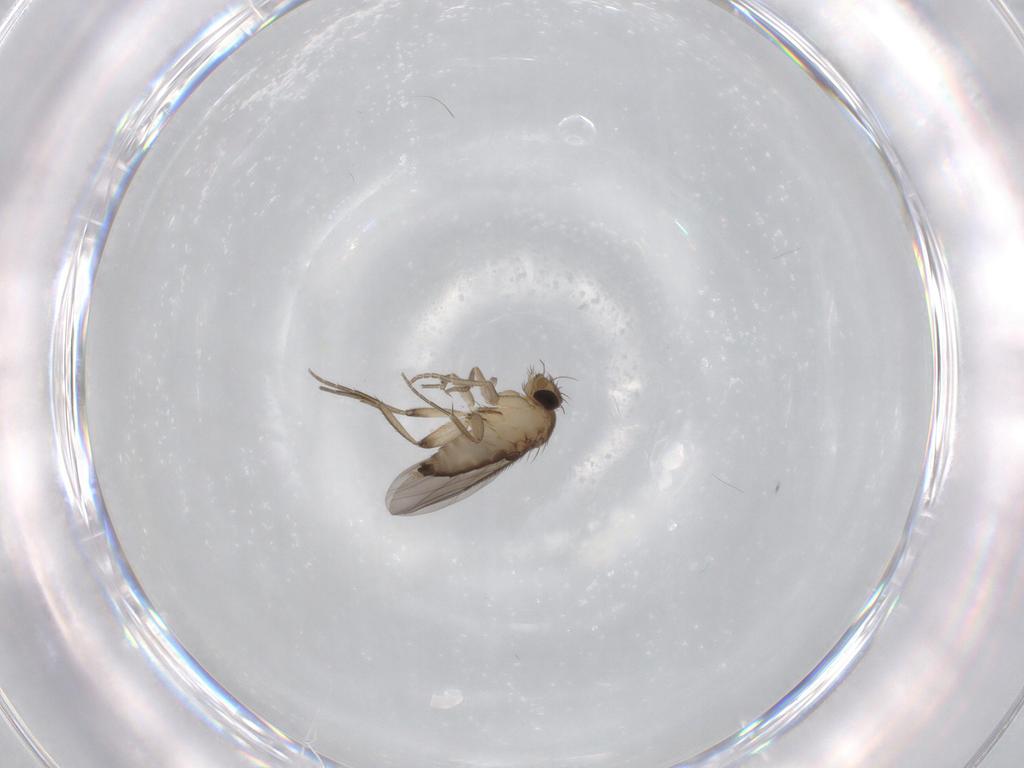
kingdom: Animalia
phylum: Arthropoda
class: Insecta
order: Diptera
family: Phoridae
